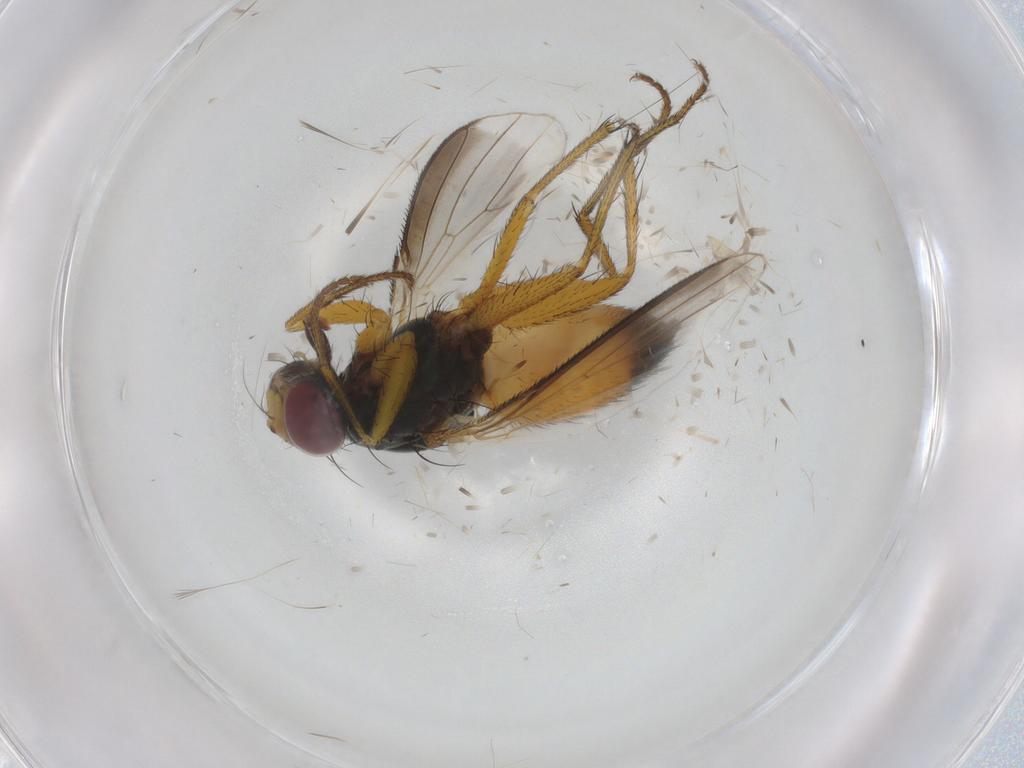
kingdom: Animalia
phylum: Arthropoda
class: Insecta
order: Diptera
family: Muscidae
